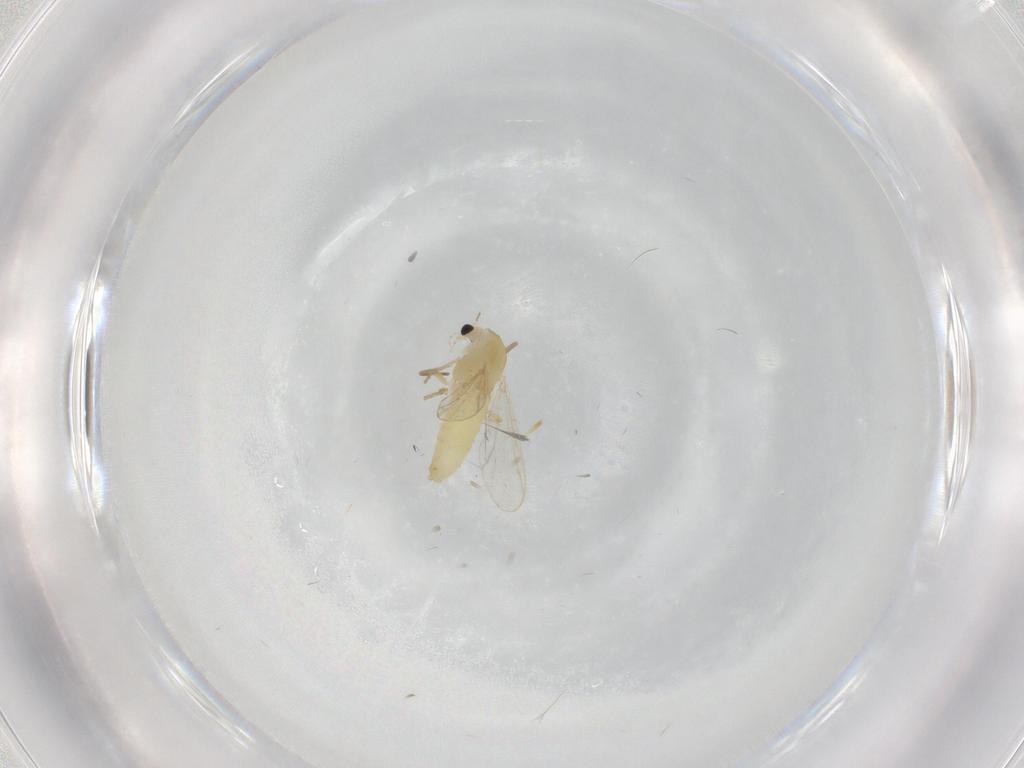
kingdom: Animalia
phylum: Arthropoda
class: Insecta
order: Diptera
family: Chironomidae
